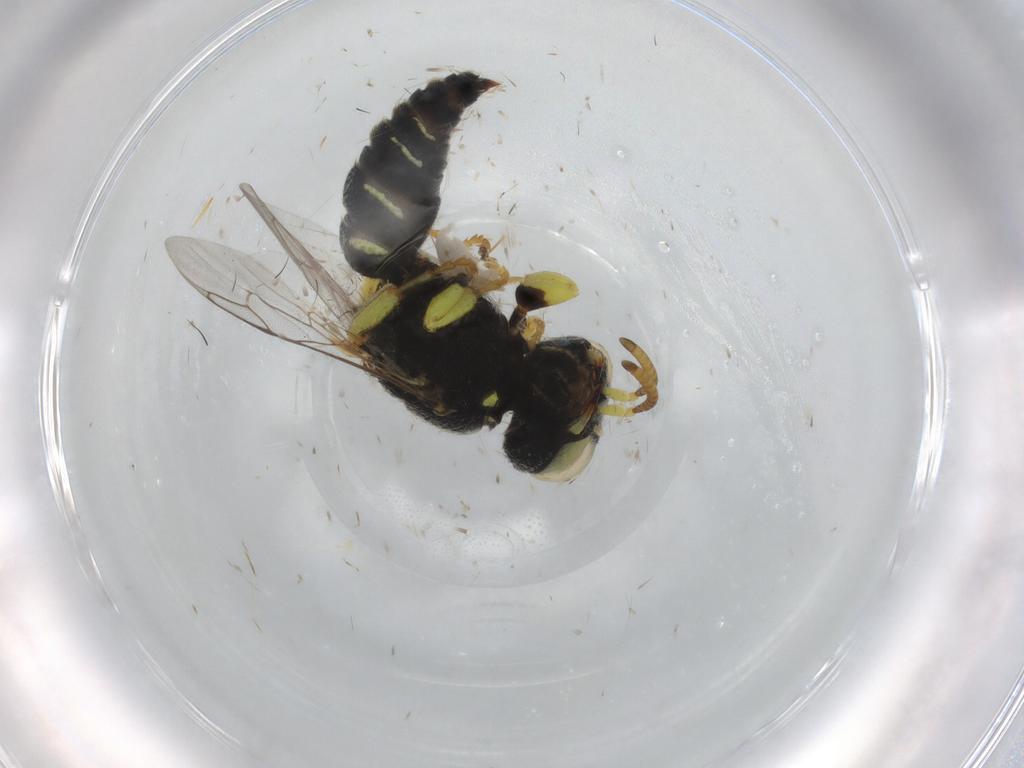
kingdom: Animalia
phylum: Arthropoda
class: Insecta
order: Hymenoptera
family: Crabronidae
